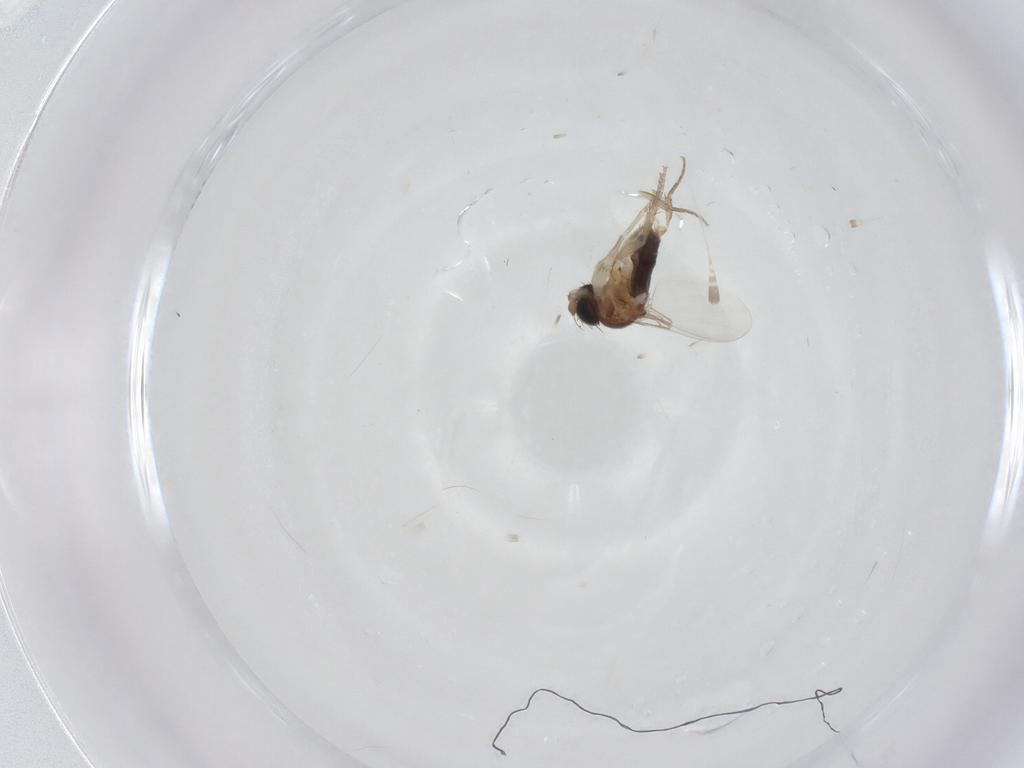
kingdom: Animalia
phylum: Arthropoda
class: Insecta
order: Diptera
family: Phoridae
